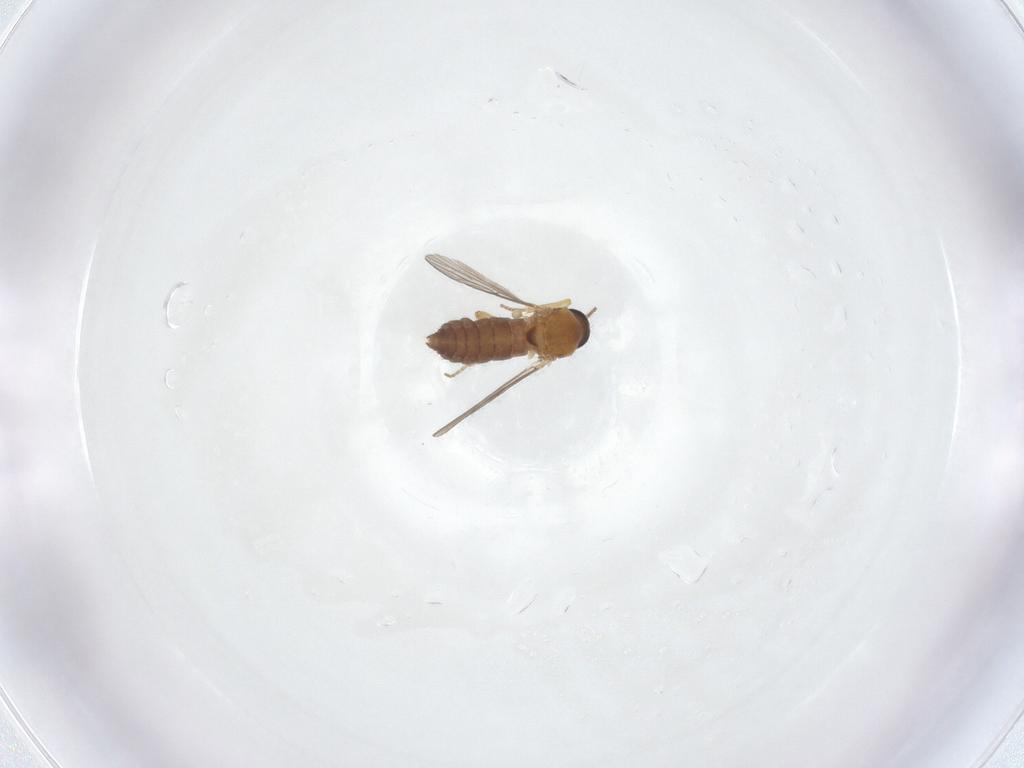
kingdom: Animalia
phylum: Arthropoda
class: Insecta
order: Diptera
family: Ceratopogonidae
